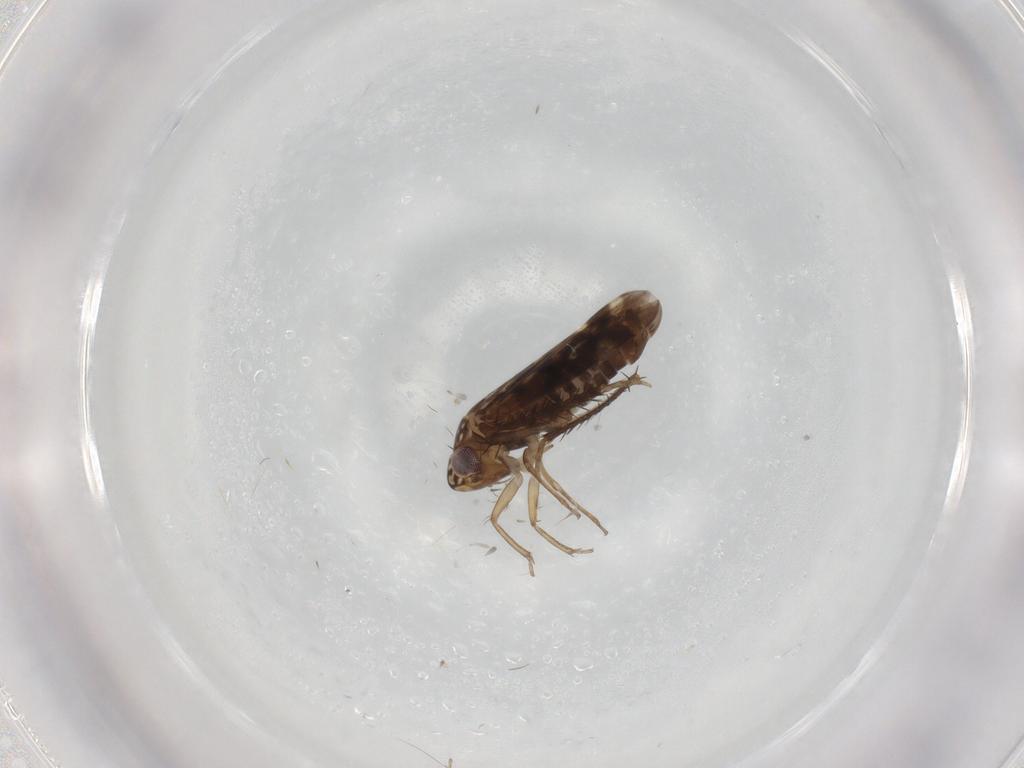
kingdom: Animalia
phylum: Arthropoda
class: Insecta
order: Hemiptera
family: Cicadellidae
